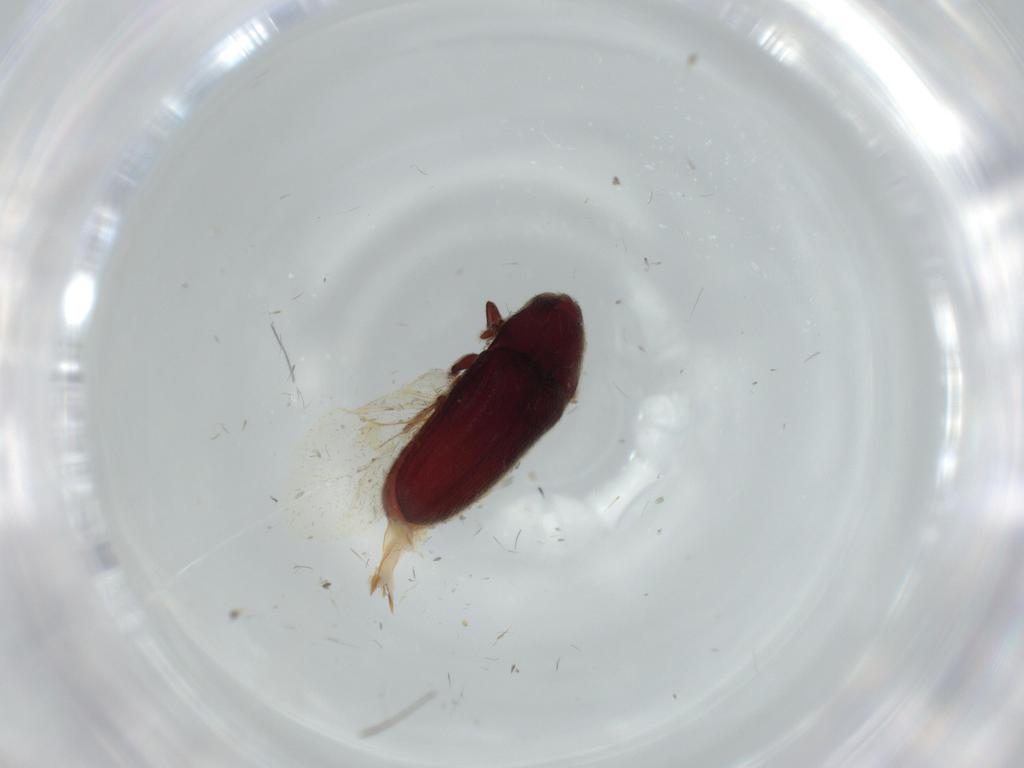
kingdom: Animalia
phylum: Arthropoda
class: Insecta
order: Coleoptera
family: Throscidae
